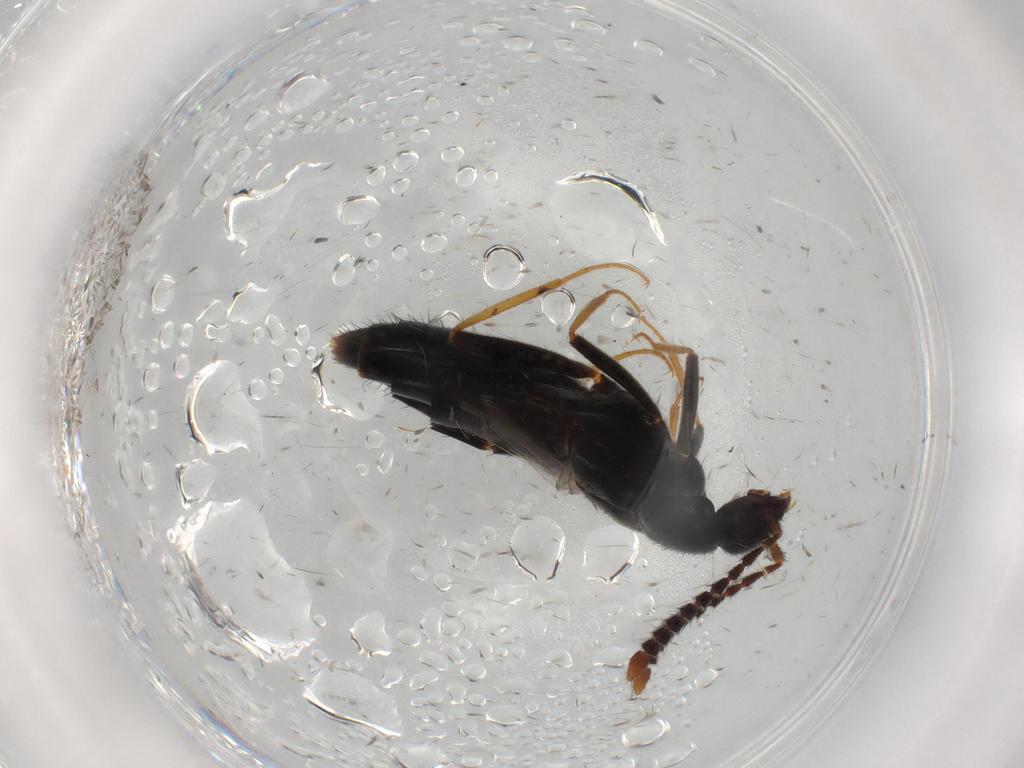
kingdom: Animalia
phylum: Arthropoda
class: Insecta
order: Coleoptera
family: Staphylinidae
